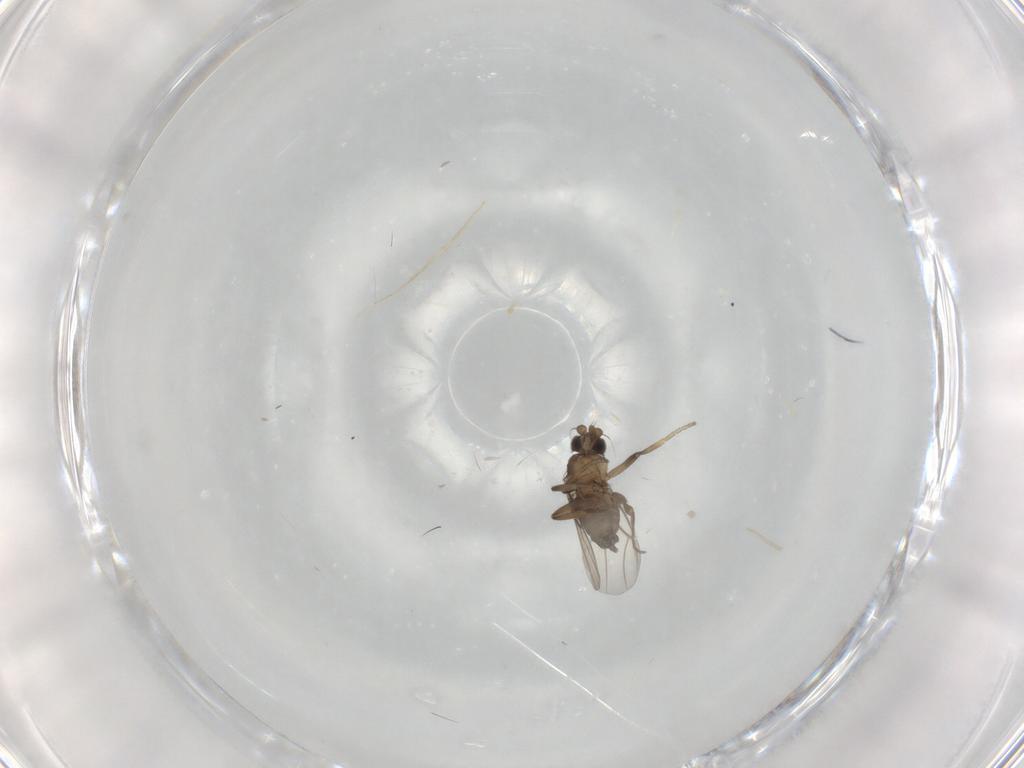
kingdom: Animalia
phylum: Arthropoda
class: Insecta
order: Diptera
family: Phoridae
